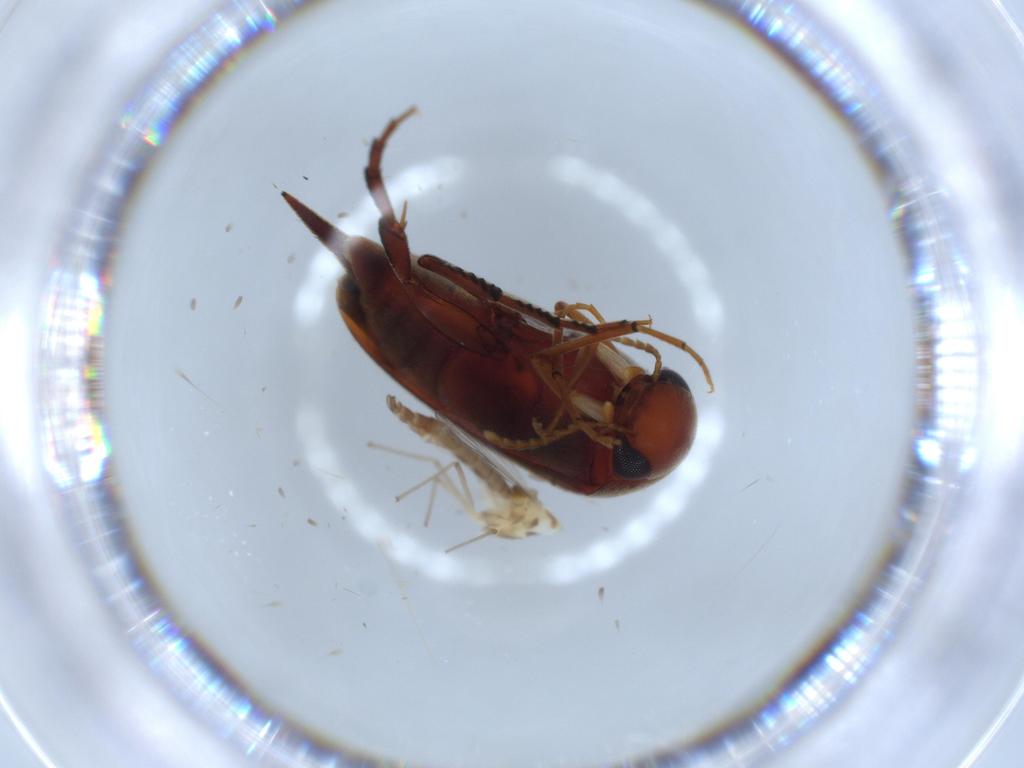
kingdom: Animalia
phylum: Arthropoda
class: Insecta
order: Diptera
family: Chironomidae
